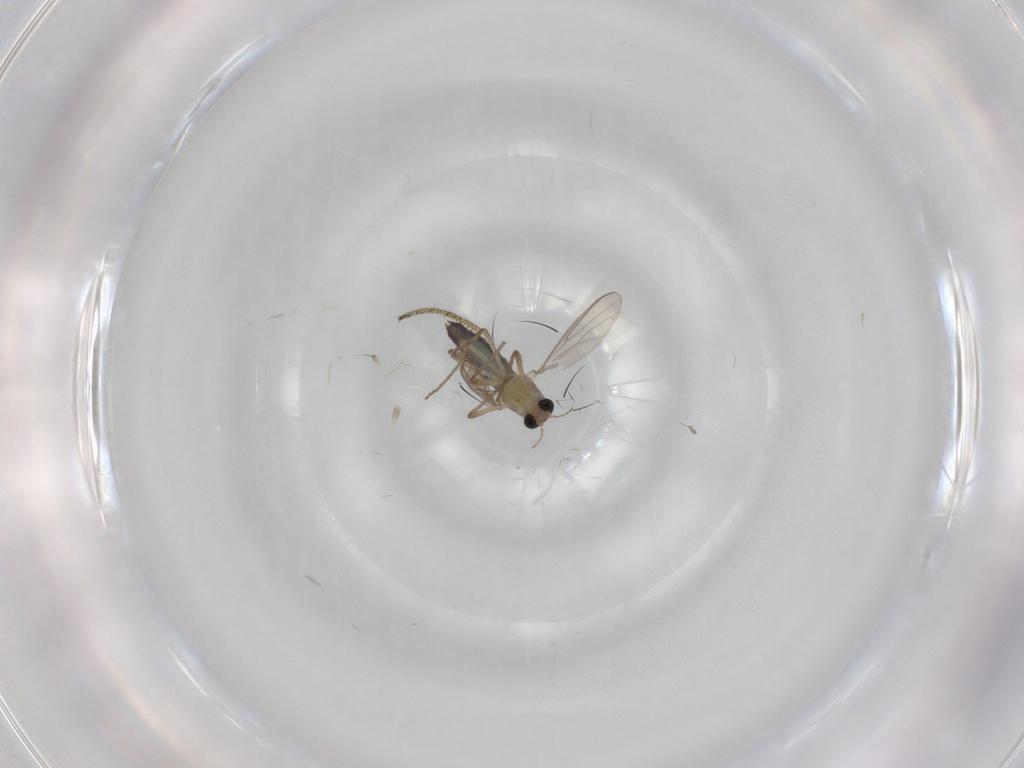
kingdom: Animalia
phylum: Arthropoda
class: Insecta
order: Diptera
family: Chironomidae
